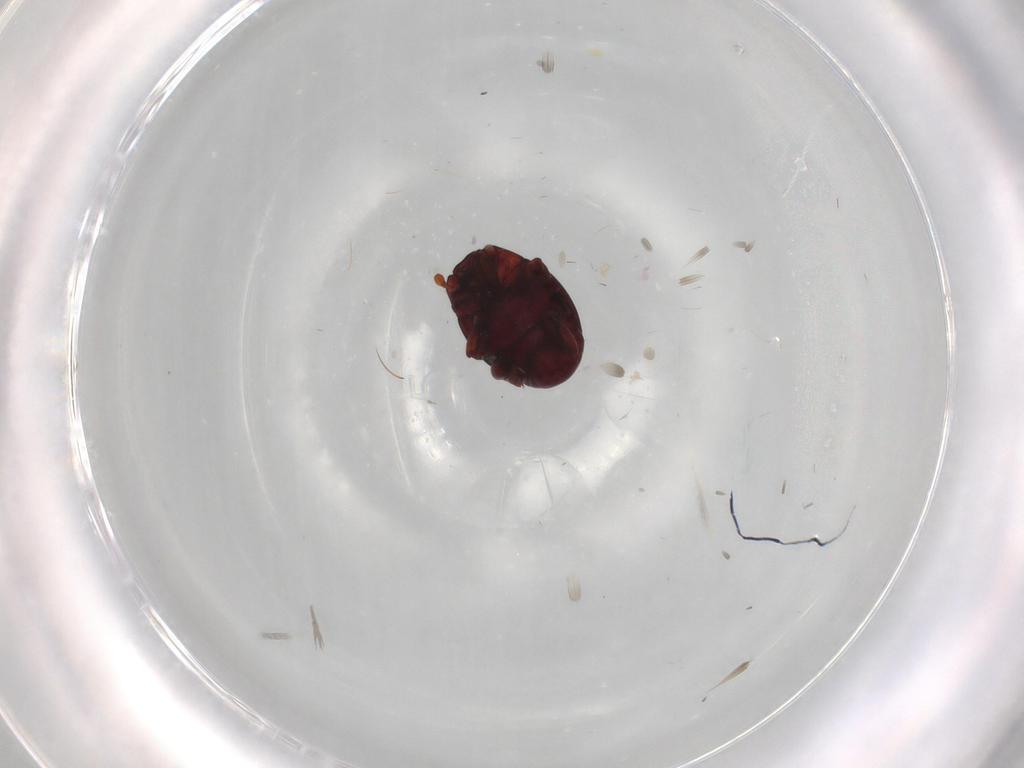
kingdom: Animalia
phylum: Arthropoda
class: Insecta
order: Coleoptera
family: Histeridae
